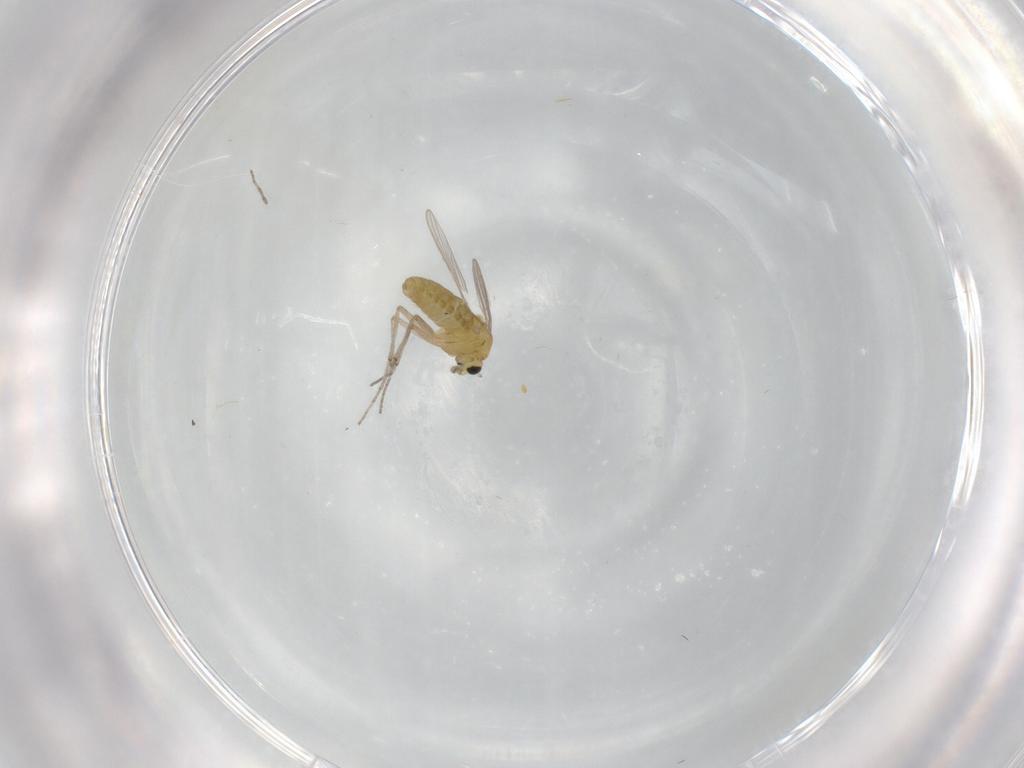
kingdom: Animalia
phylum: Arthropoda
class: Insecta
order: Diptera
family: Chironomidae
